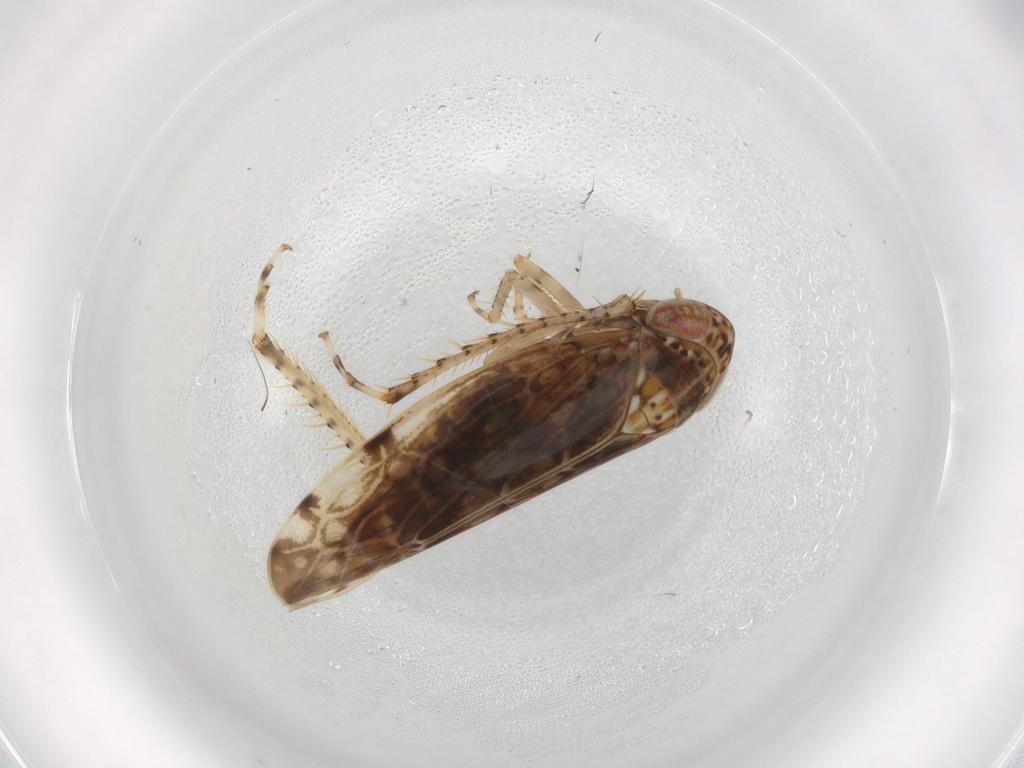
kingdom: Animalia
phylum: Arthropoda
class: Insecta
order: Hemiptera
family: Cicadellidae
